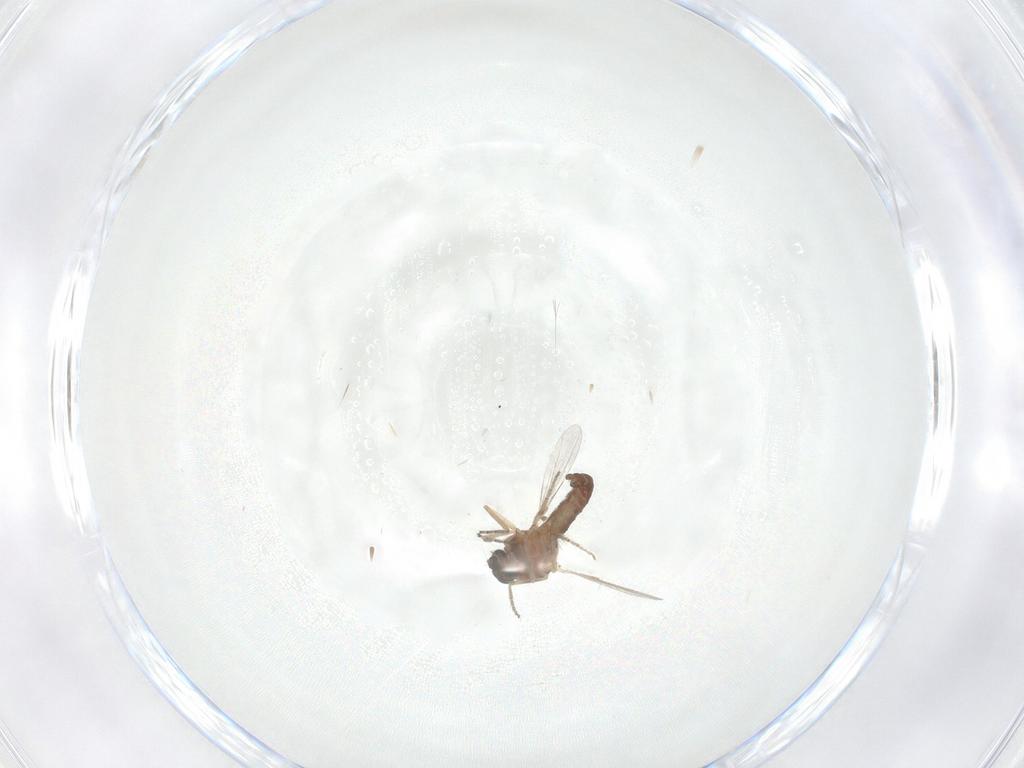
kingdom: Animalia
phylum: Arthropoda
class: Insecta
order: Diptera
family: Ceratopogonidae
